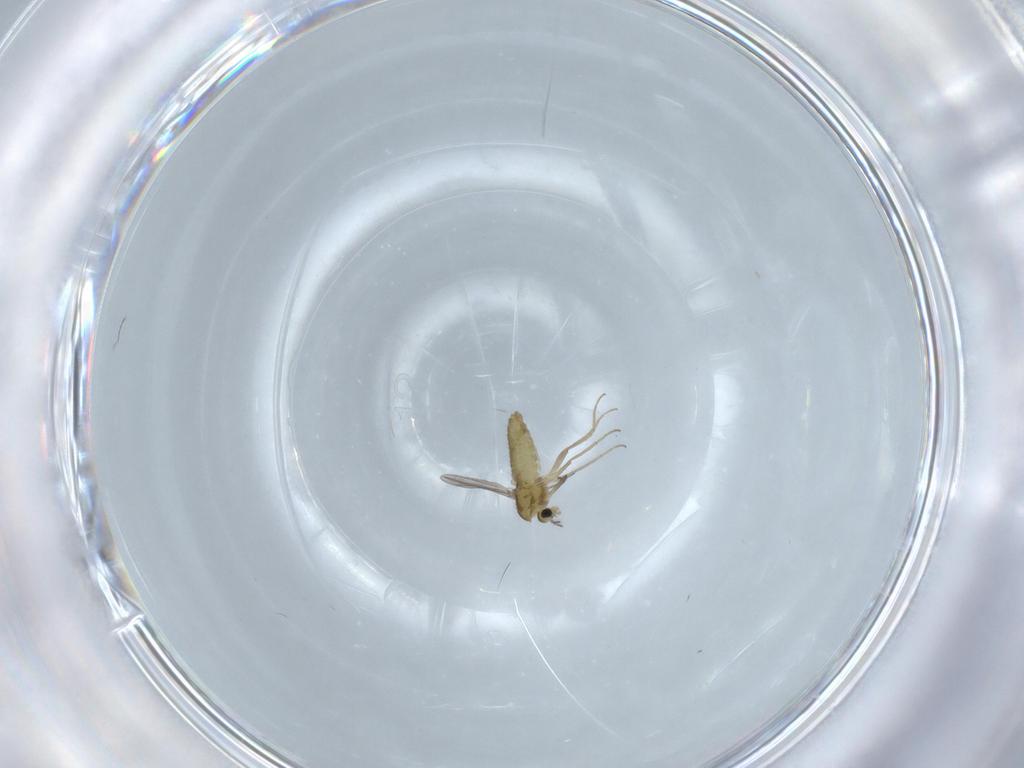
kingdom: Animalia
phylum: Arthropoda
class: Insecta
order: Diptera
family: Chironomidae
